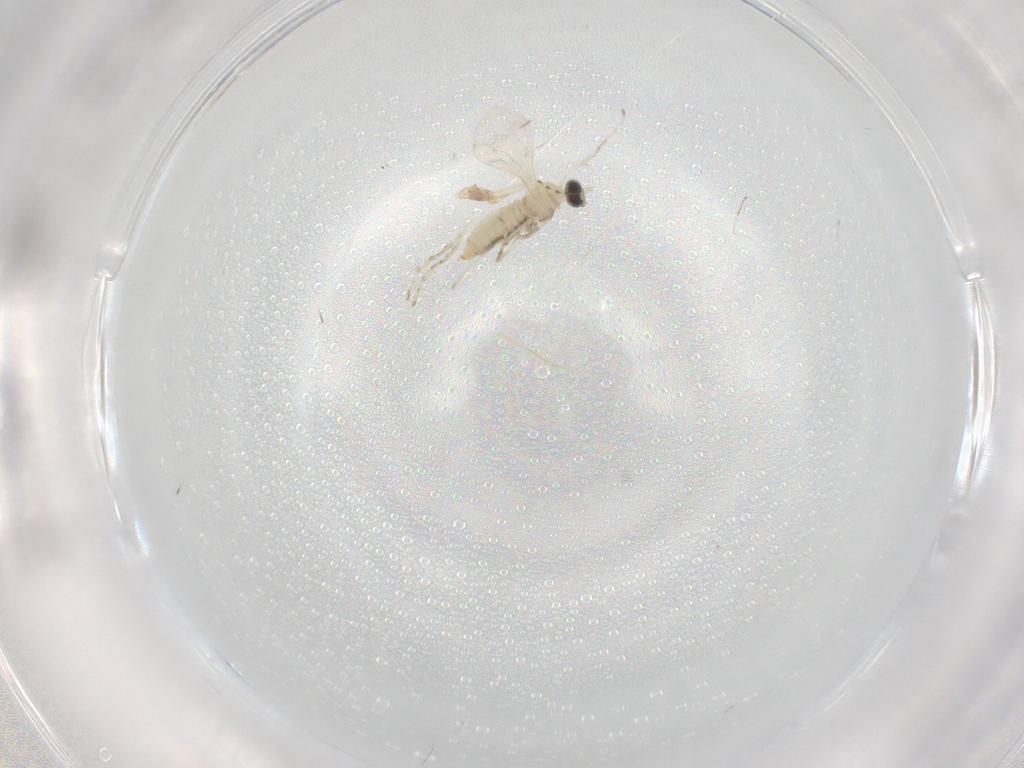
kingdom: Animalia
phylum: Arthropoda
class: Insecta
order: Diptera
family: Cecidomyiidae
